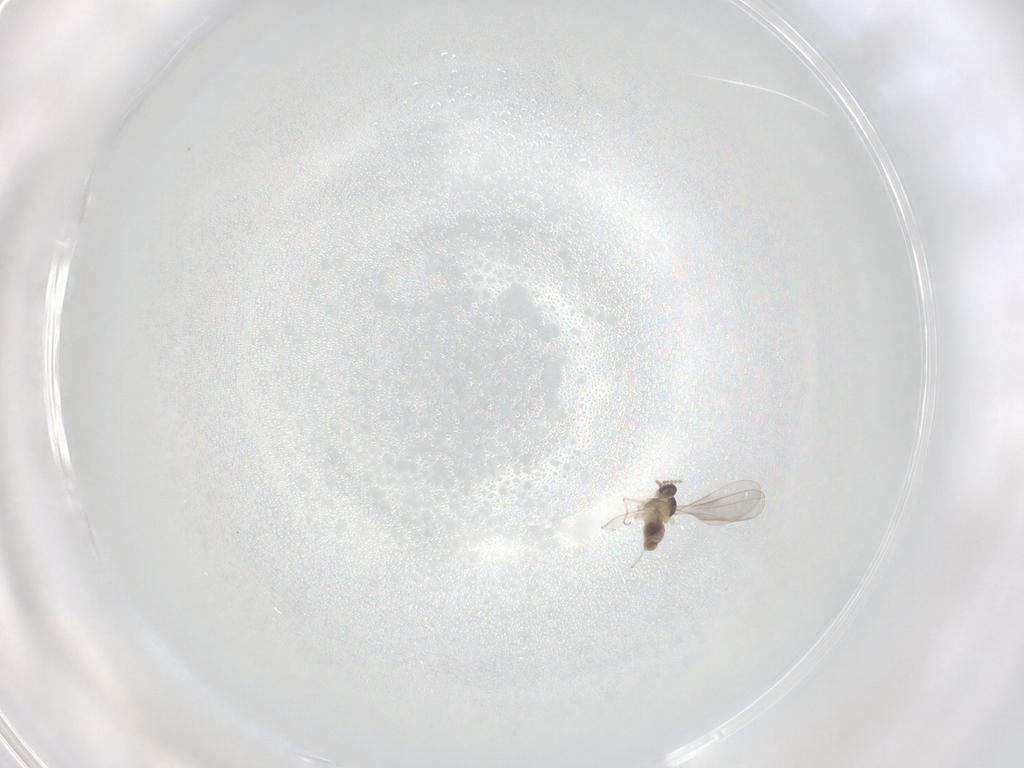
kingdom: Animalia
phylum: Arthropoda
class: Insecta
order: Diptera
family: Cecidomyiidae
